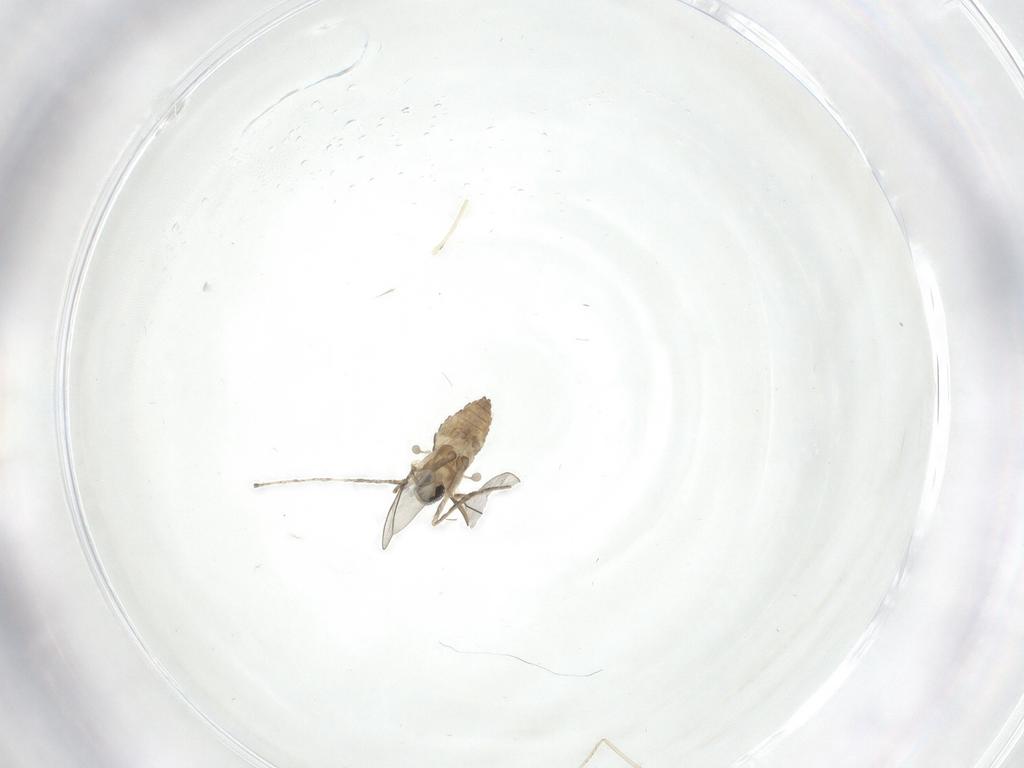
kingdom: Animalia
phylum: Arthropoda
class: Insecta
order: Diptera
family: Cecidomyiidae
